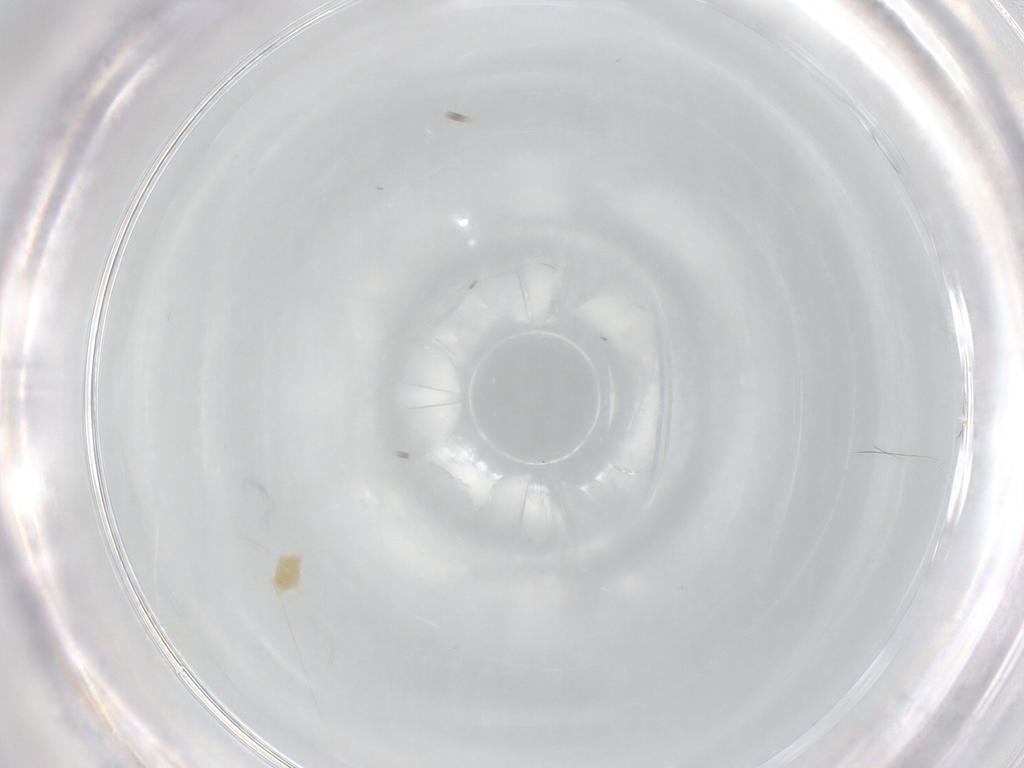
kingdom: Animalia
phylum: Arthropoda
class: Arachnida
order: Trombidiformes
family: Tetranychidae
